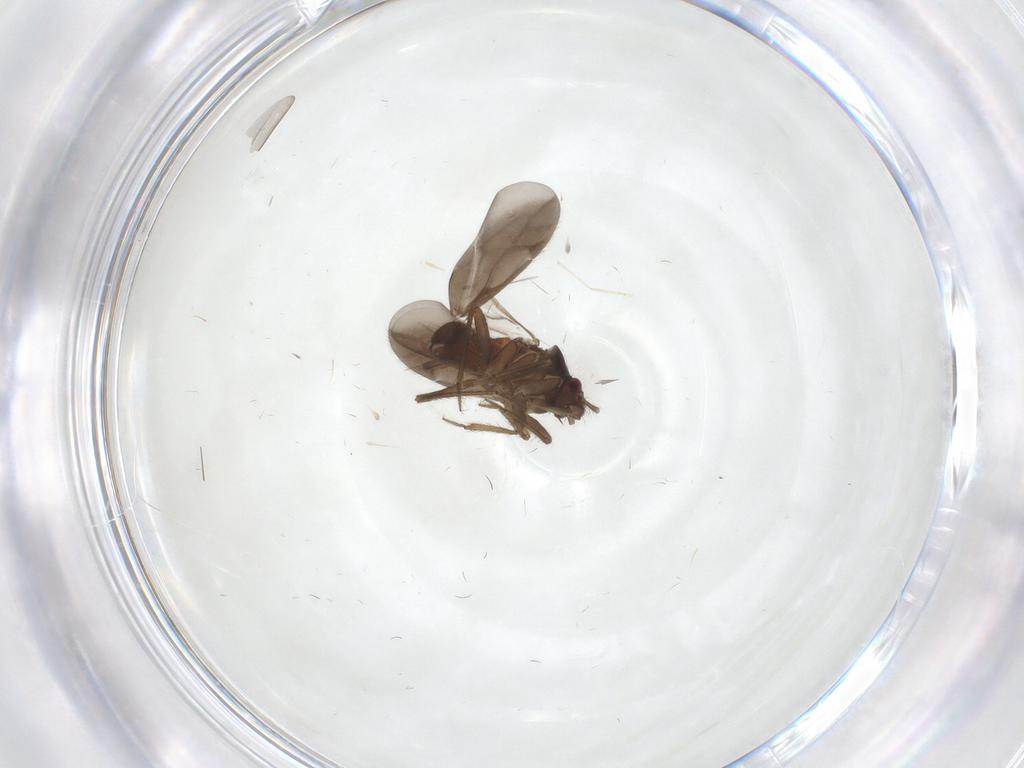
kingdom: Animalia
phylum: Arthropoda
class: Insecta
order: Hemiptera
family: Ceratocombidae
